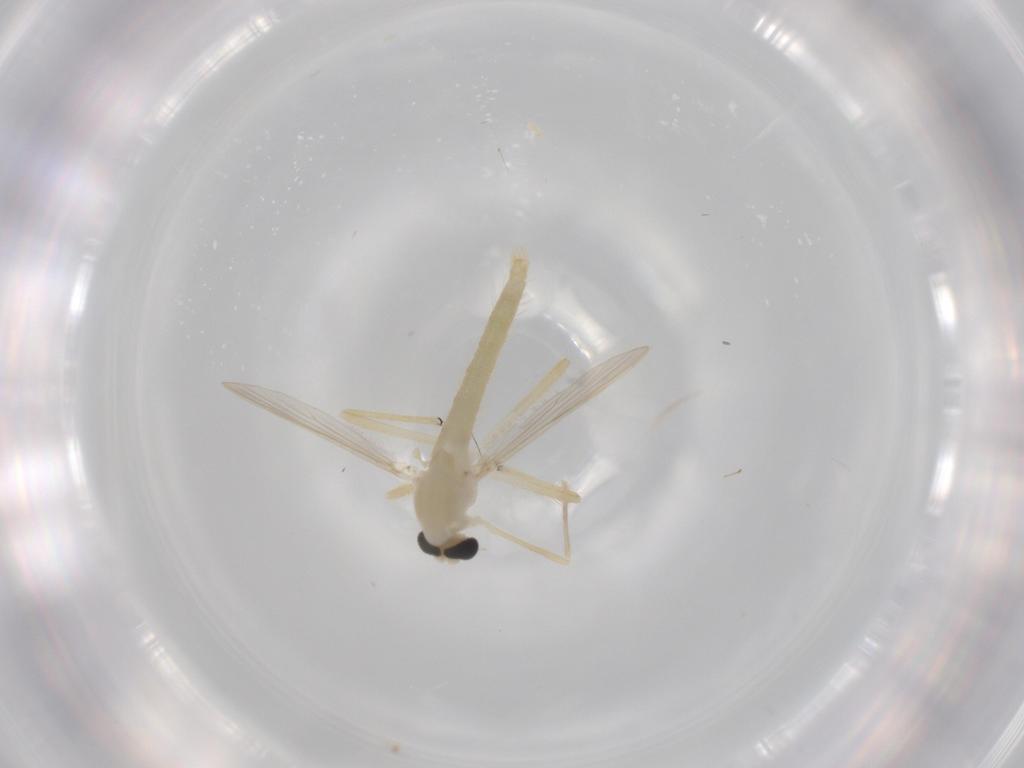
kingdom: Animalia
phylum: Arthropoda
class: Insecta
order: Diptera
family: Chironomidae
